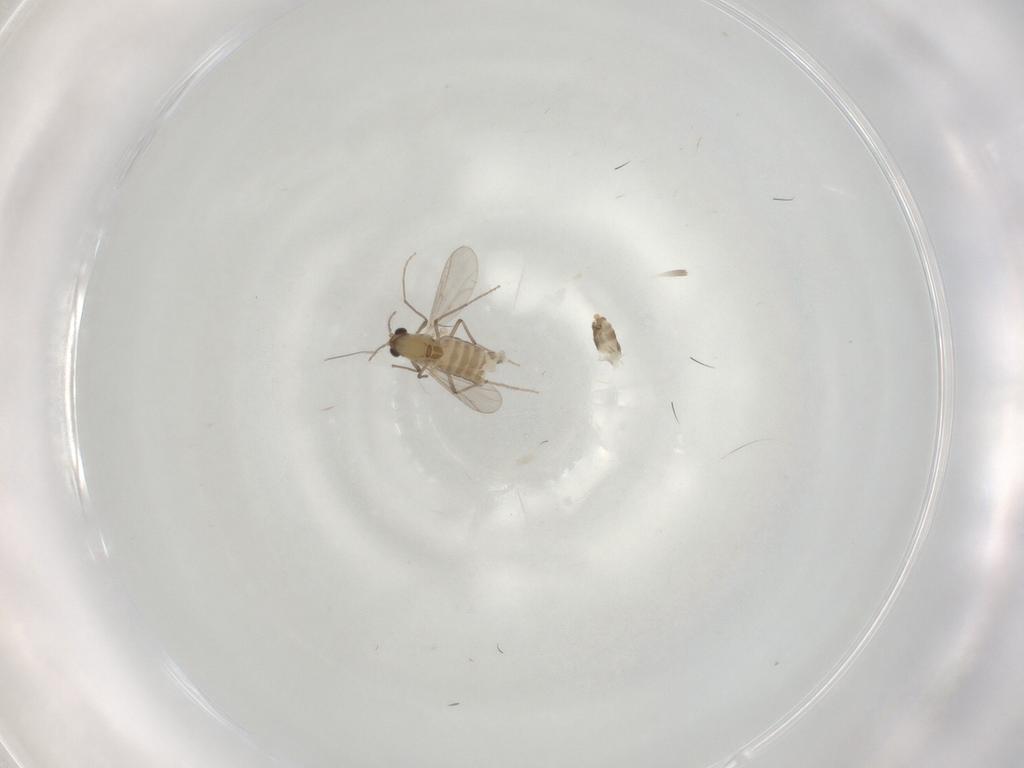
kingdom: Animalia
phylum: Arthropoda
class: Insecta
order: Diptera
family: Chironomidae
